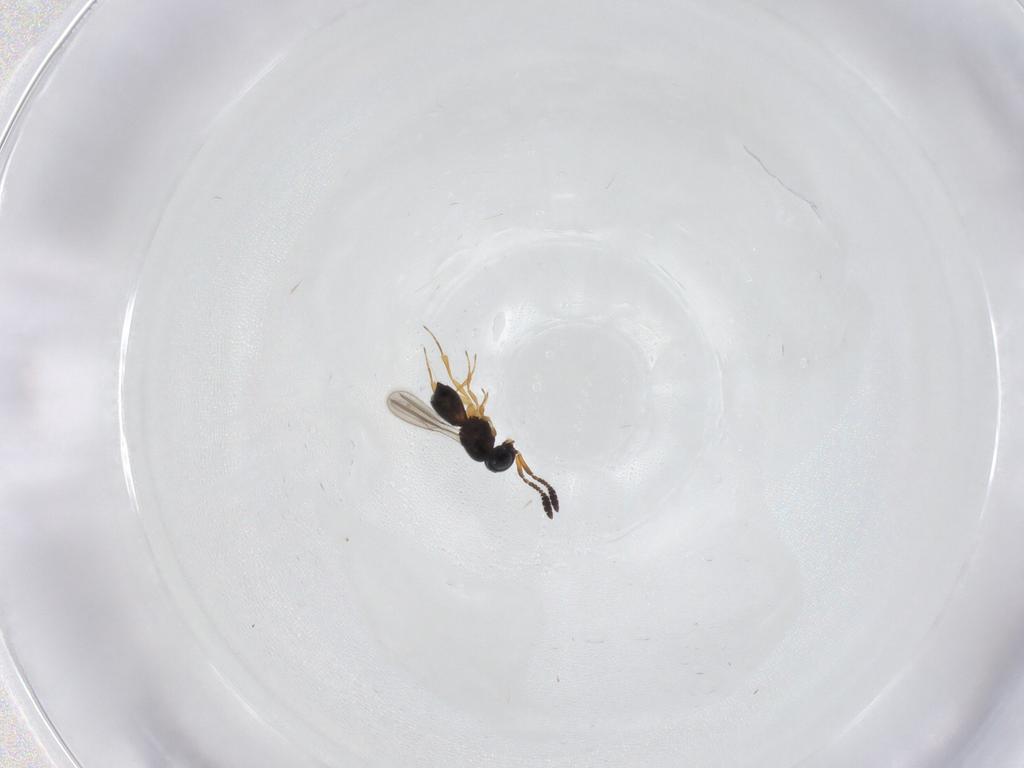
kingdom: Animalia
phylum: Arthropoda
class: Insecta
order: Hymenoptera
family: Scelionidae
